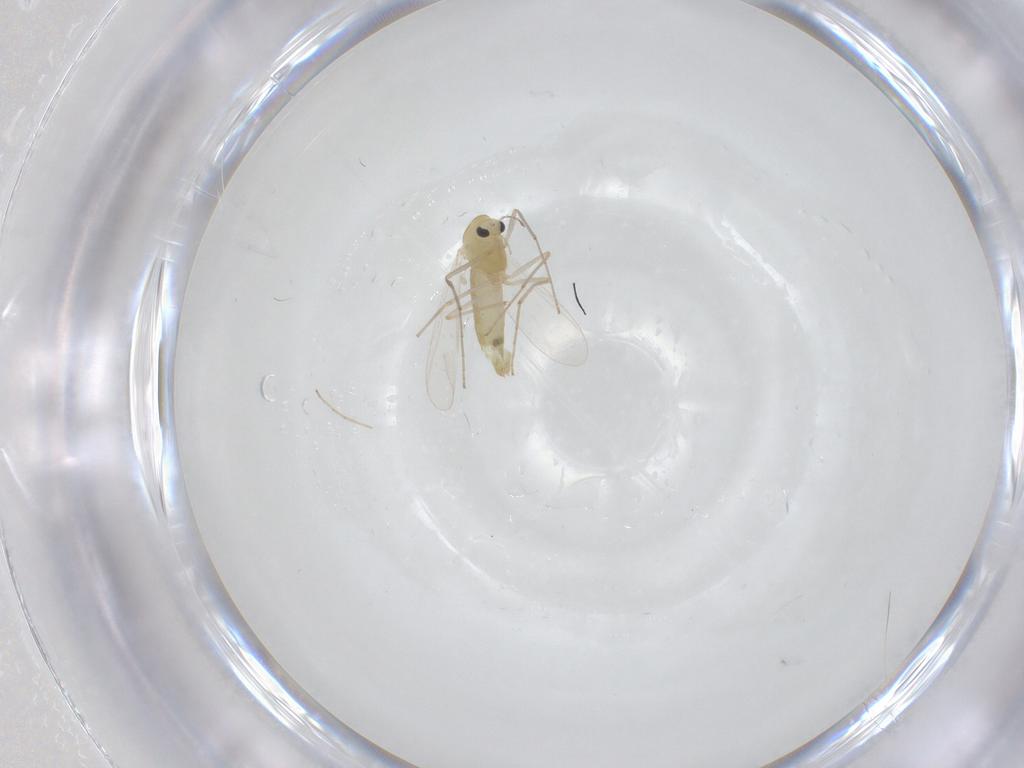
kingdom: Animalia
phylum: Arthropoda
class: Insecta
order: Diptera
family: Chironomidae
